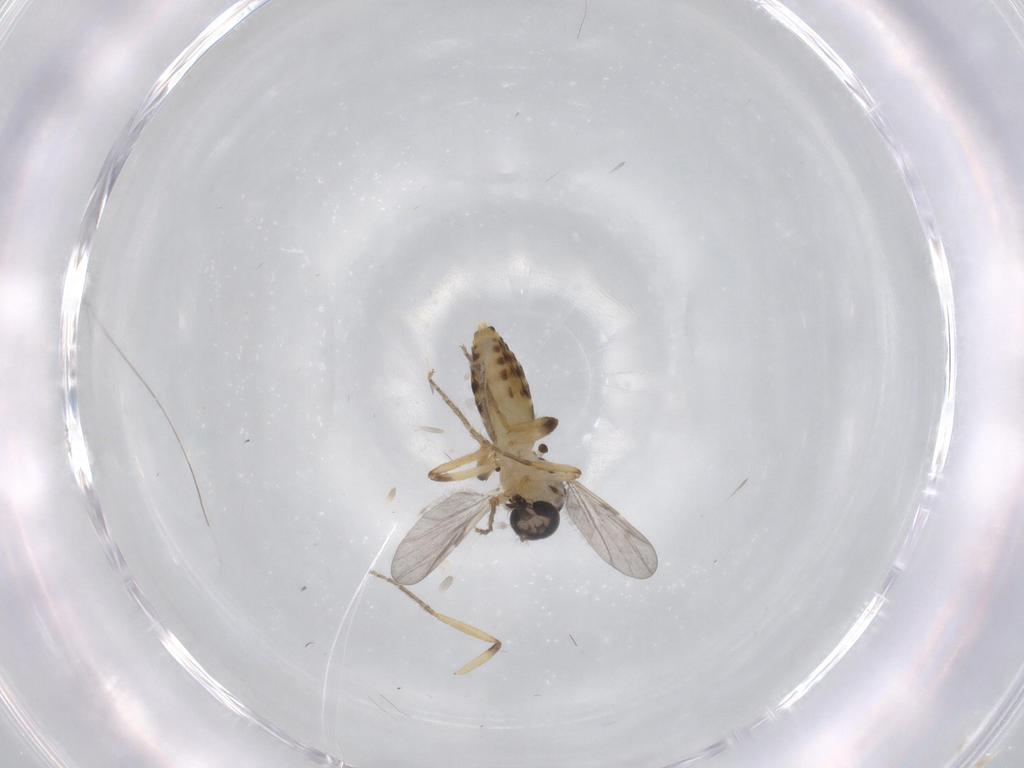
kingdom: Animalia
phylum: Arthropoda
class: Insecta
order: Diptera
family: Ceratopogonidae
